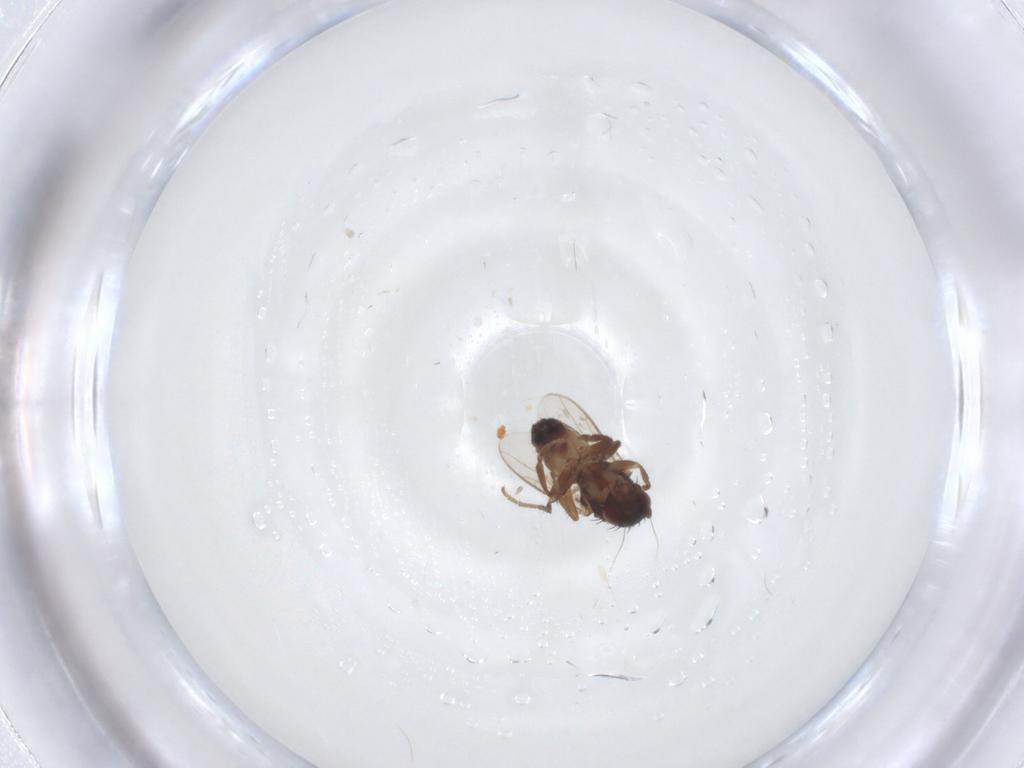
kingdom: Animalia
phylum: Arthropoda
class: Insecta
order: Diptera
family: Sphaeroceridae
